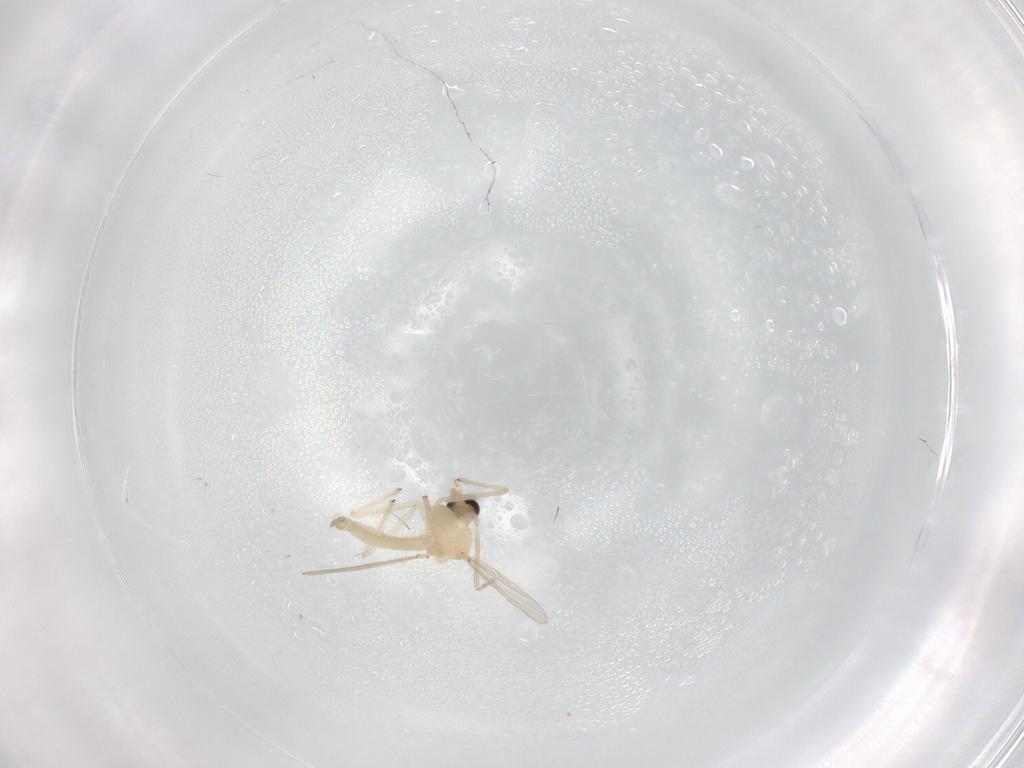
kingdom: Animalia
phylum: Arthropoda
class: Insecta
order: Diptera
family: Chironomidae
